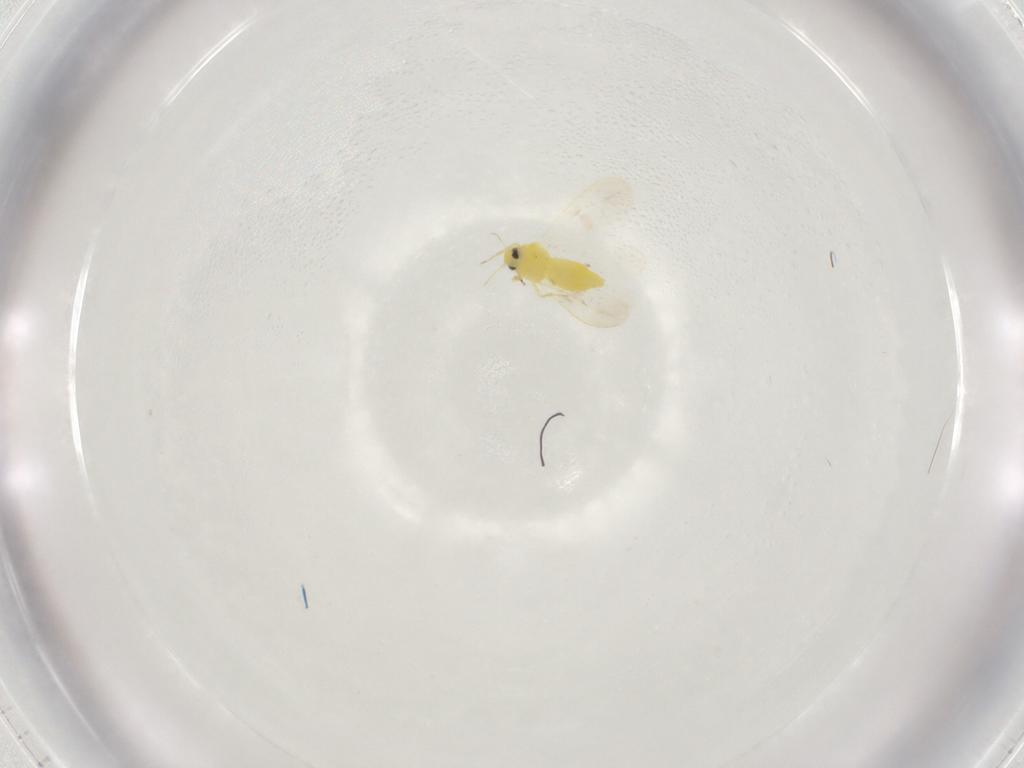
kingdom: Animalia
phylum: Arthropoda
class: Insecta
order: Hemiptera
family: Aleyrodidae
